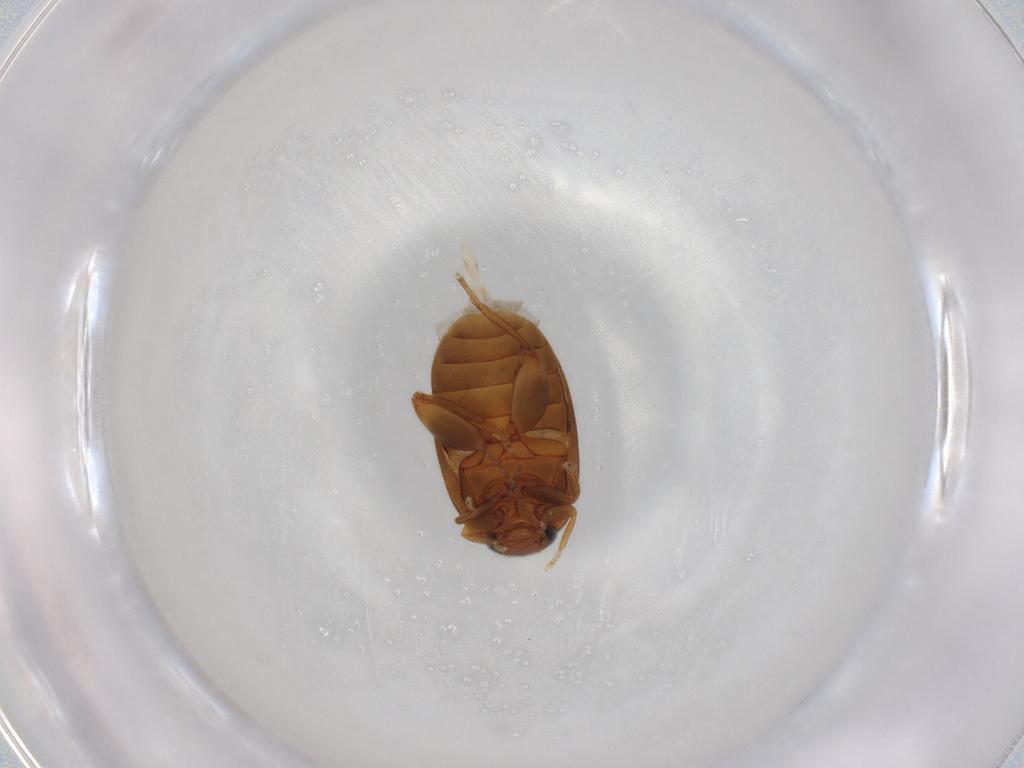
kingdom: Animalia
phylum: Arthropoda
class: Insecta
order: Coleoptera
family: Scirtidae
